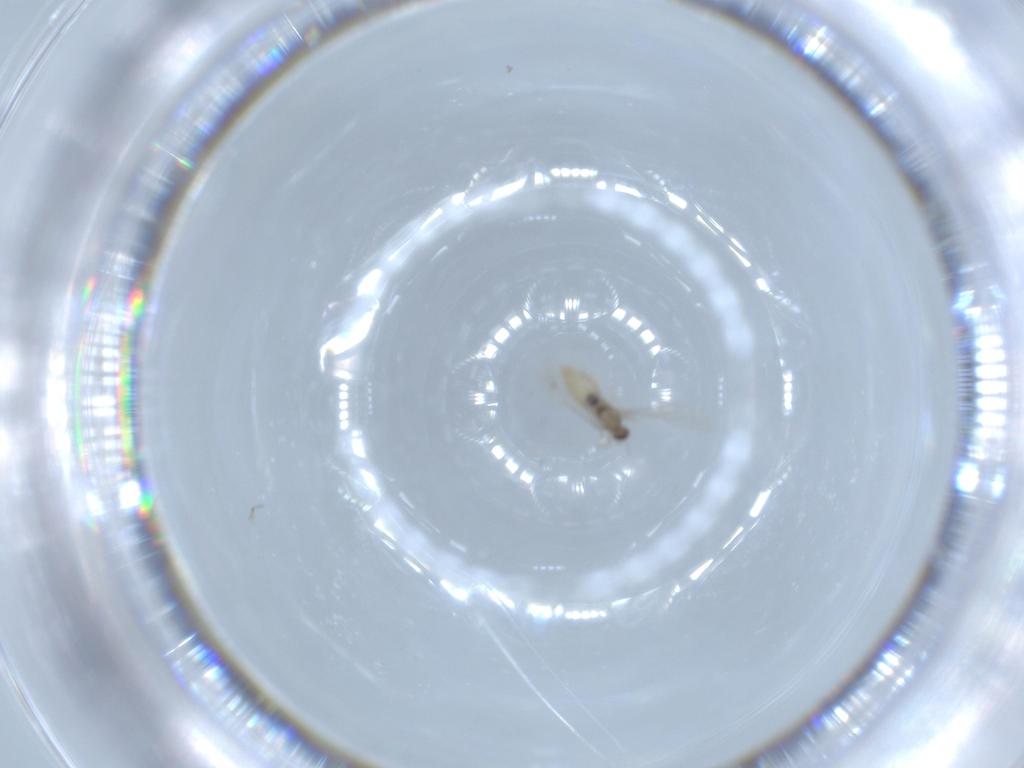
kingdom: Animalia
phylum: Arthropoda
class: Insecta
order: Diptera
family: Cecidomyiidae
